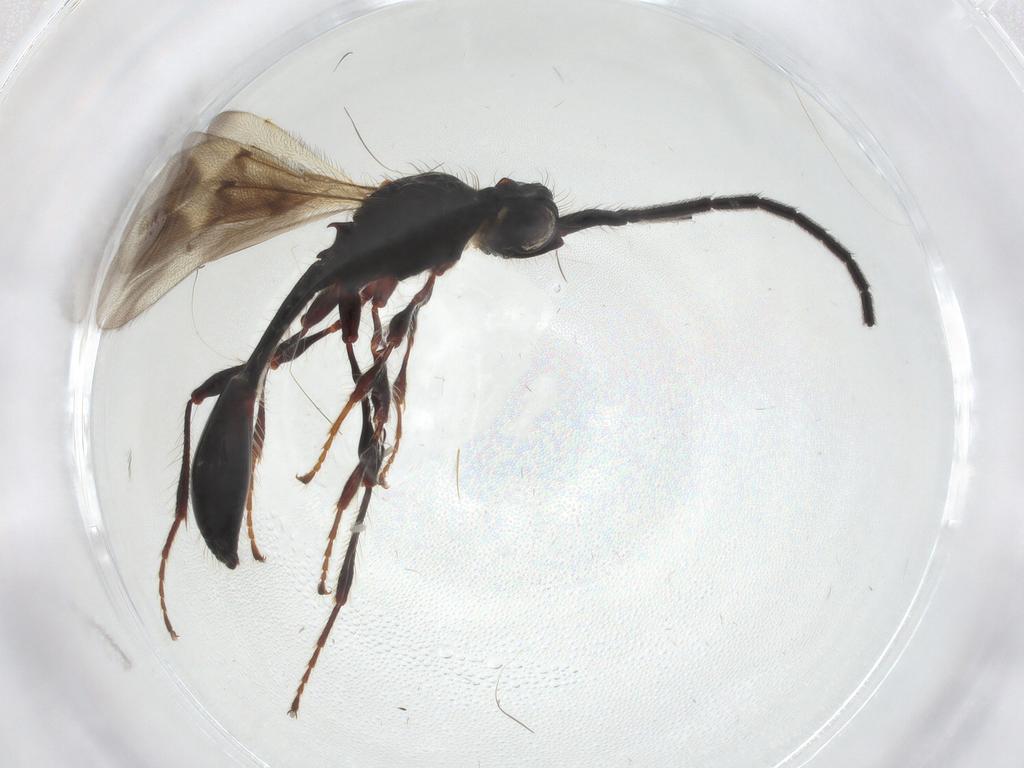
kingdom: Animalia
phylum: Arthropoda
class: Insecta
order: Hymenoptera
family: Diapriidae
